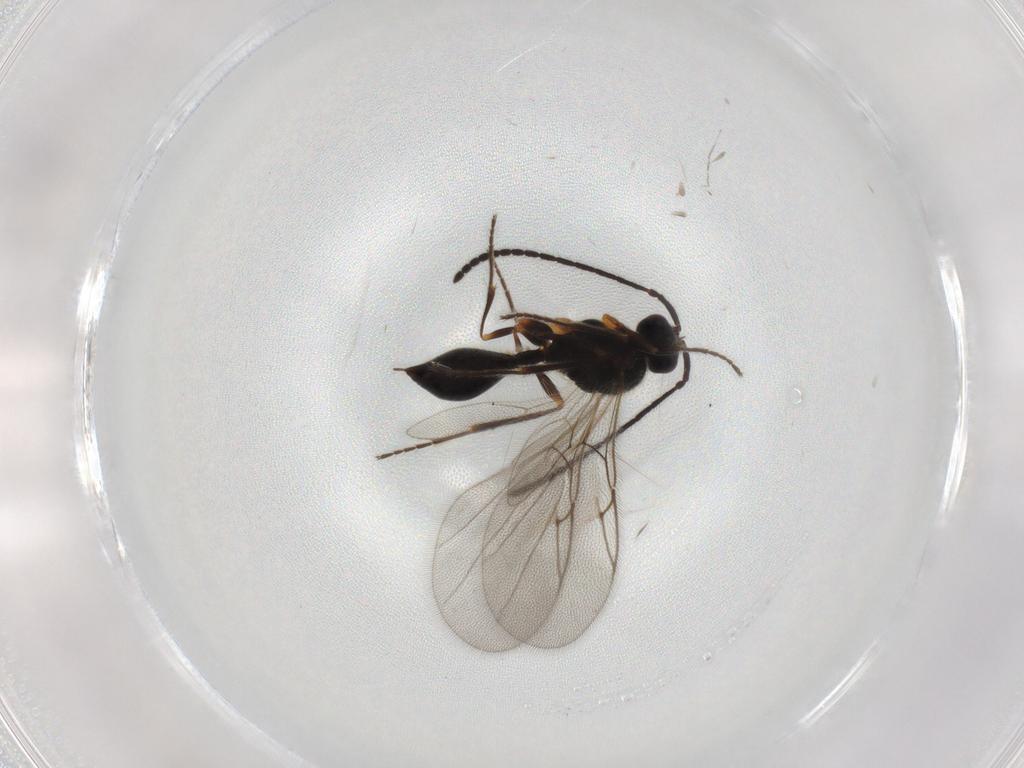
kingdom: Animalia
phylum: Arthropoda
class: Insecta
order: Hymenoptera
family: Diapriidae
